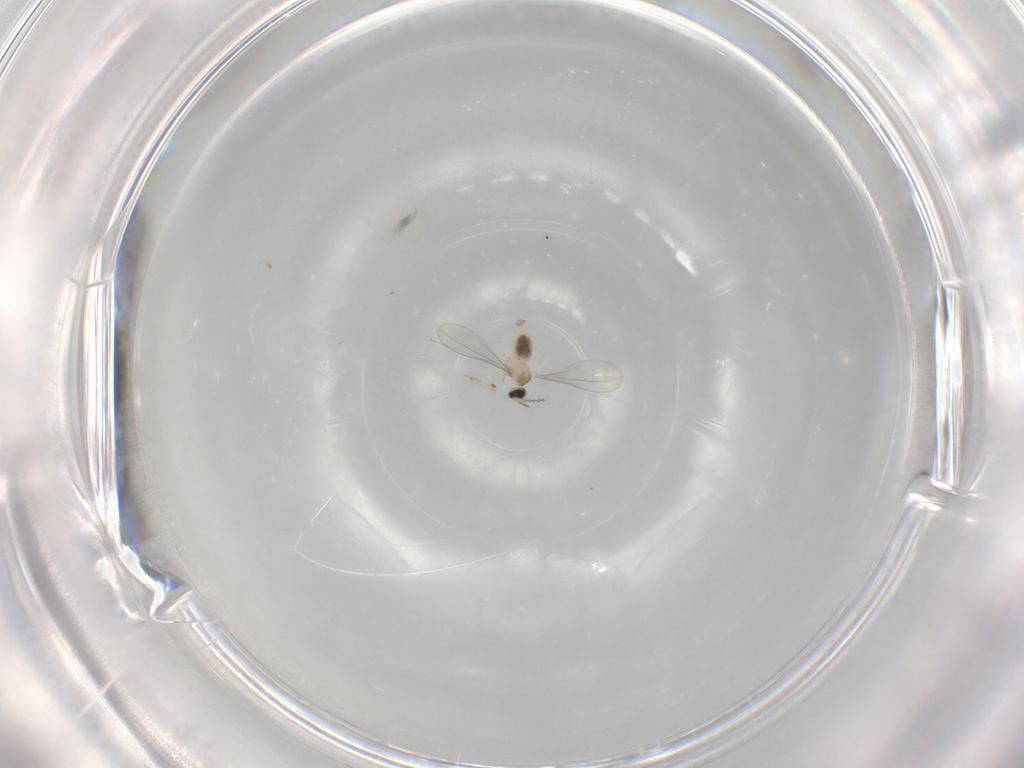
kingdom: Animalia
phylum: Arthropoda
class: Insecta
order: Diptera
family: Cecidomyiidae
